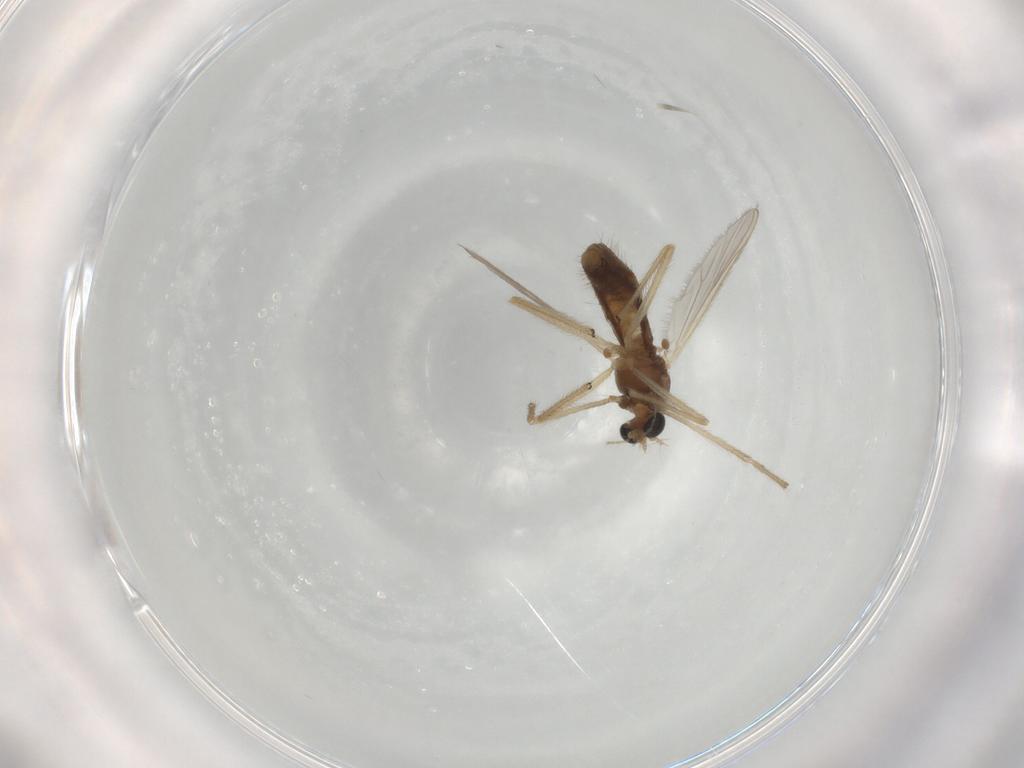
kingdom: Animalia
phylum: Arthropoda
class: Insecta
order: Diptera
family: Chironomidae
